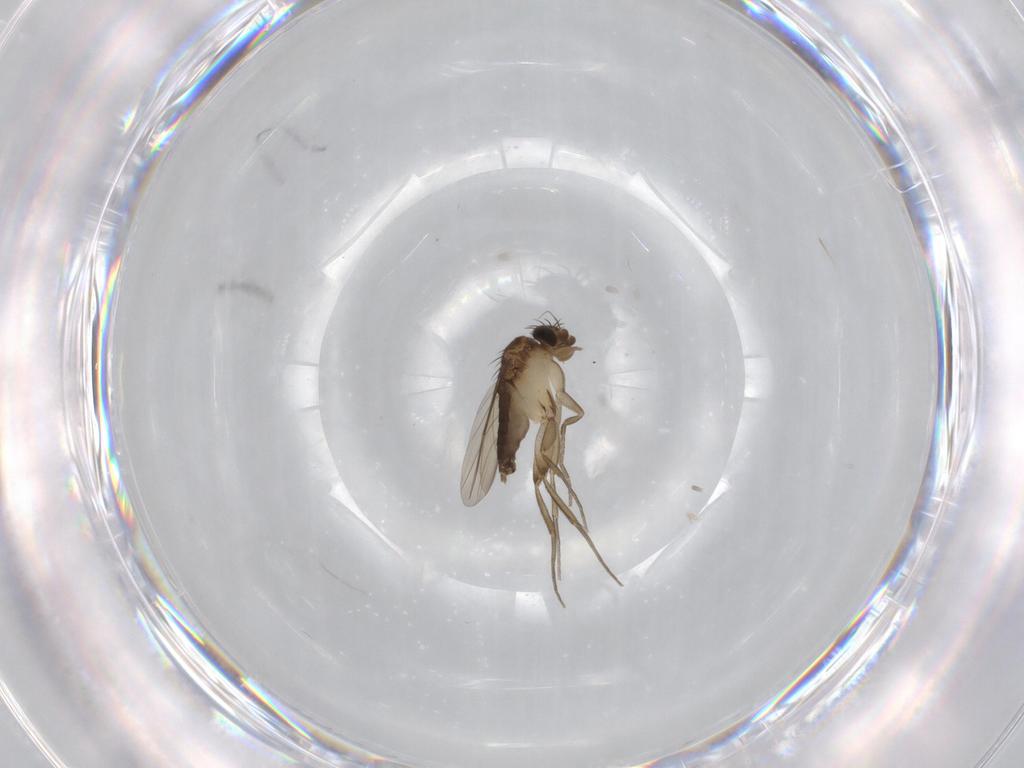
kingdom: Animalia
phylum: Arthropoda
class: Insecta
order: Diptera
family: Phoridae
